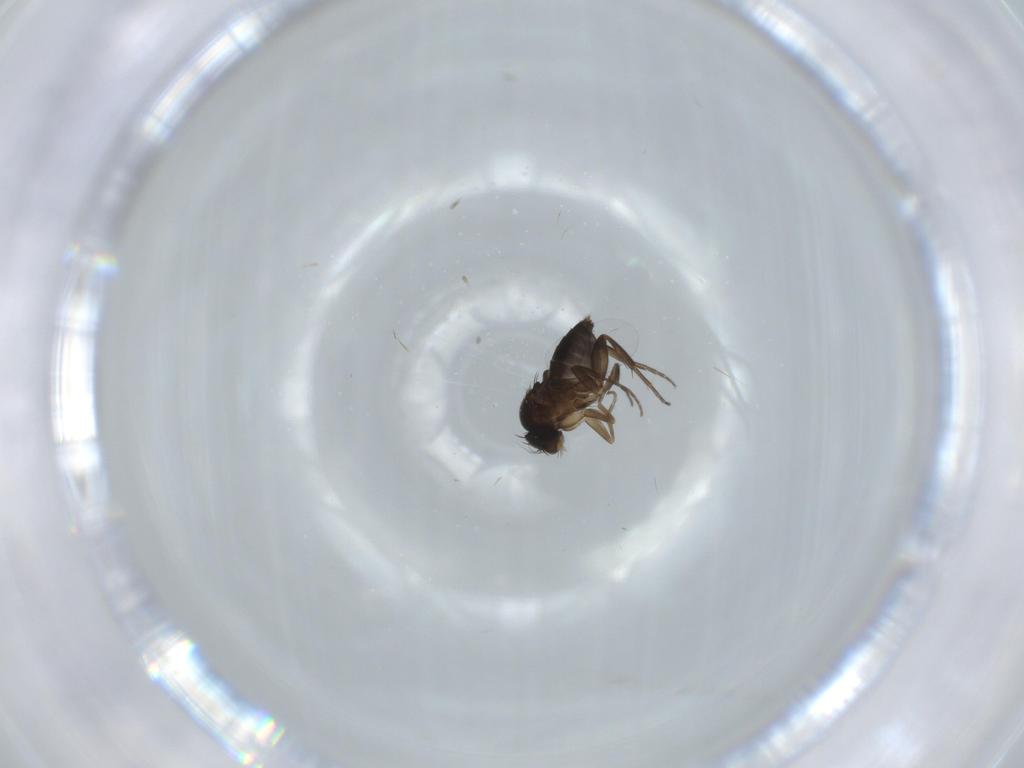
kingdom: Animalia
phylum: Arthropoda
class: Insecta
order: Diptera
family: Phoridae
